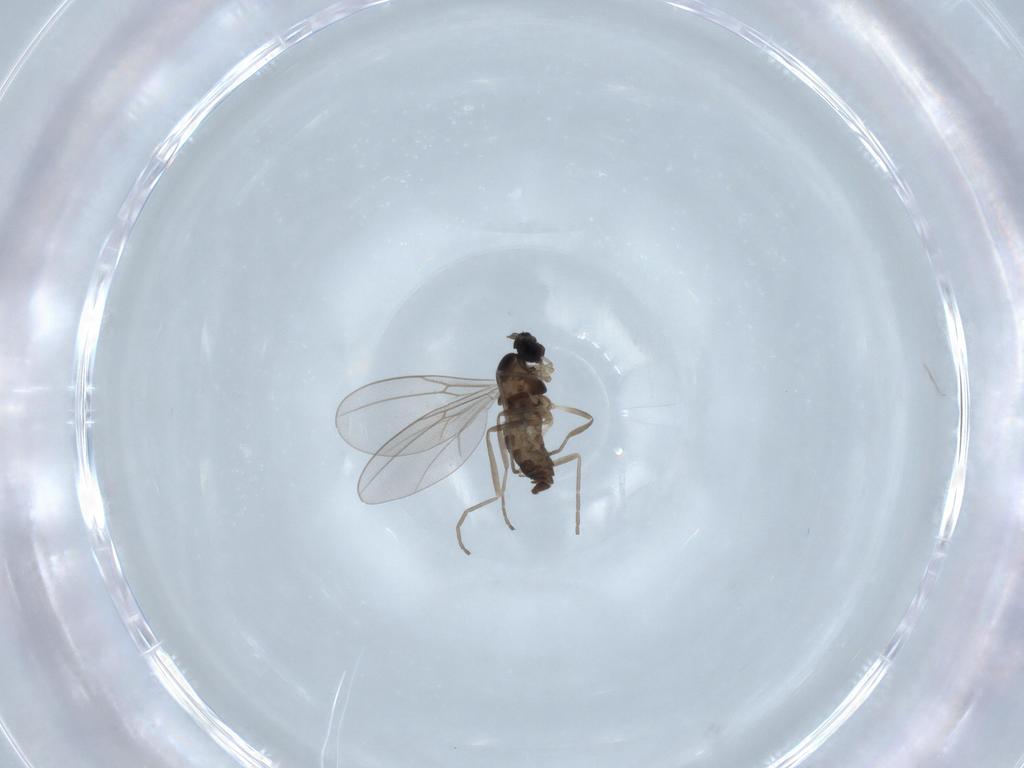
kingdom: Animalia
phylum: Arthropoda
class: Insecta
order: Diptera
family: Cecidomyiidae
